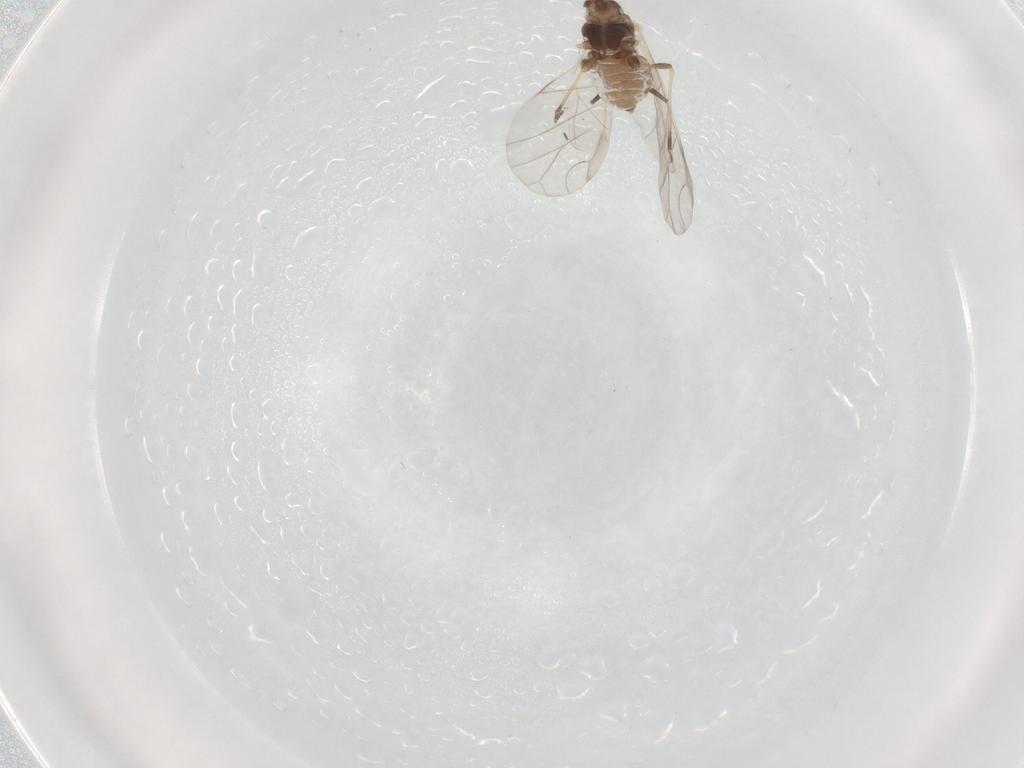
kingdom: Animalia
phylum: Arthropoda
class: Insecta
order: Hemiptera
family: Aphididae
